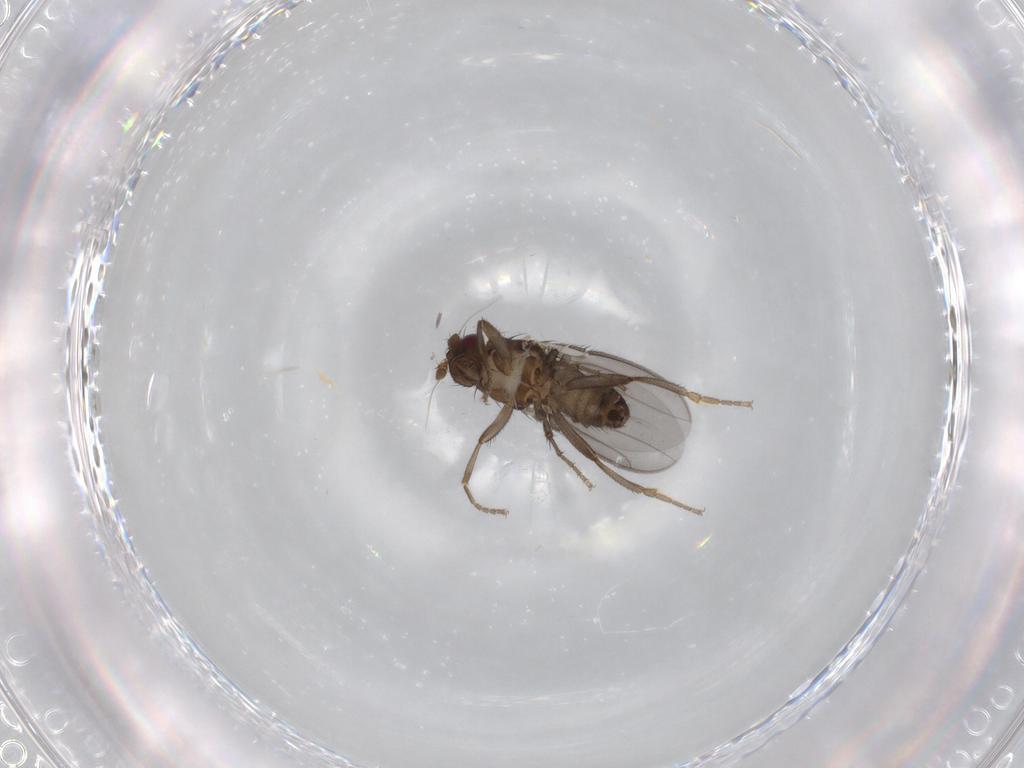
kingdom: Animalia
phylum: Arthropoda
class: Insecta
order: Diptera
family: Sphaeroceridae
